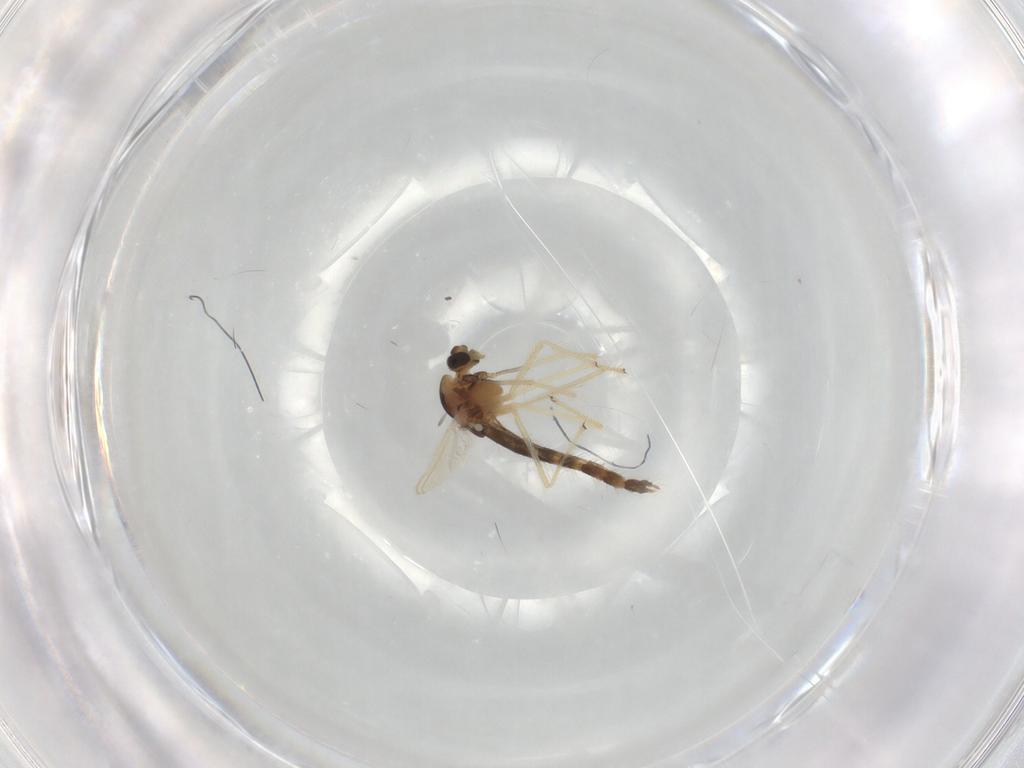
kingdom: Animalia
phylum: Arthropoda
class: Insecta
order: Diptera
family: Chironomidae
